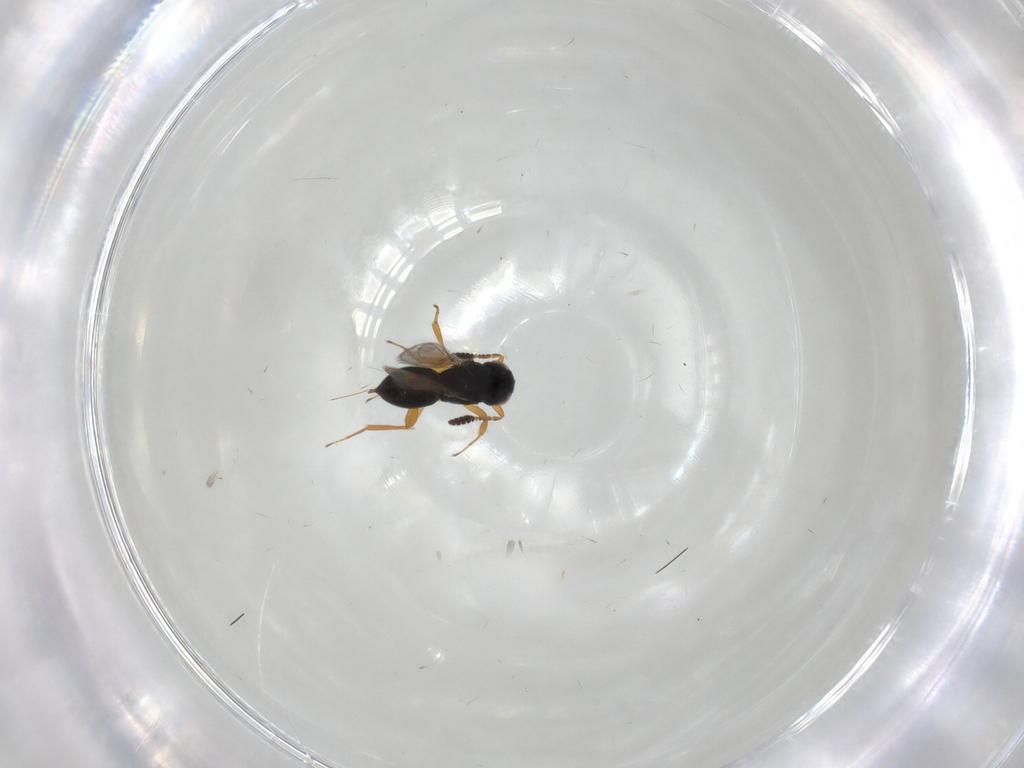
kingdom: Animalia
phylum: Arthropoda
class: Insecta
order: Hymenoptera
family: Scelionidae
